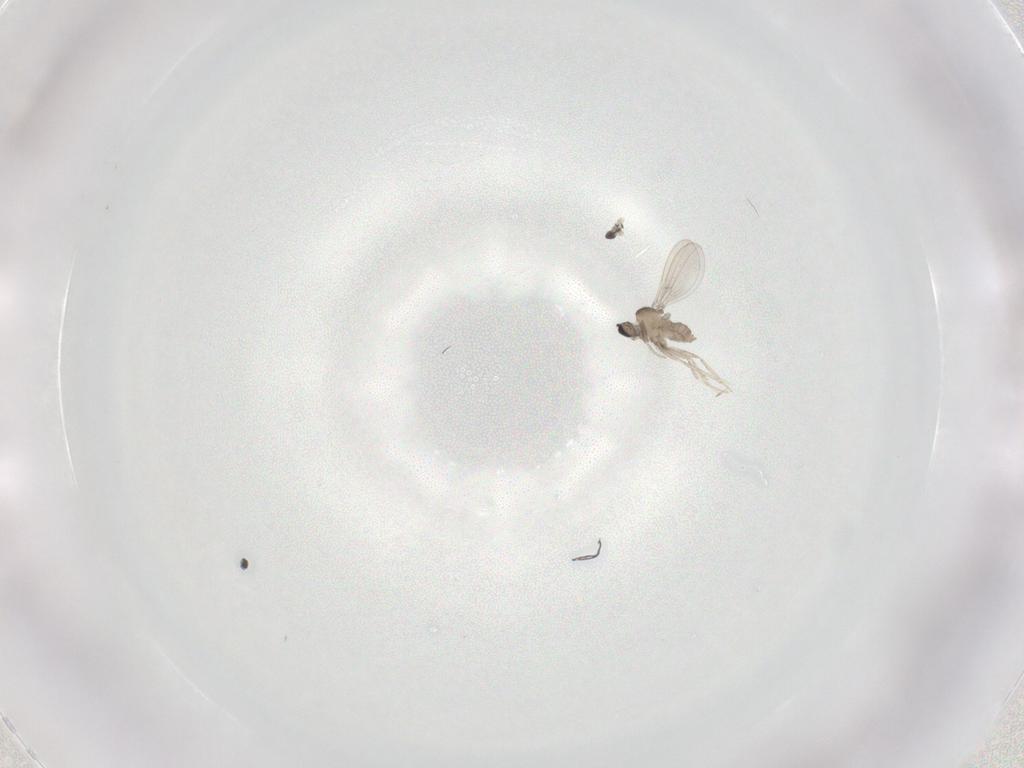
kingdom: Animalia
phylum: Arthropoda
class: Insecta
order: Diptera
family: Cecidomyiidae
